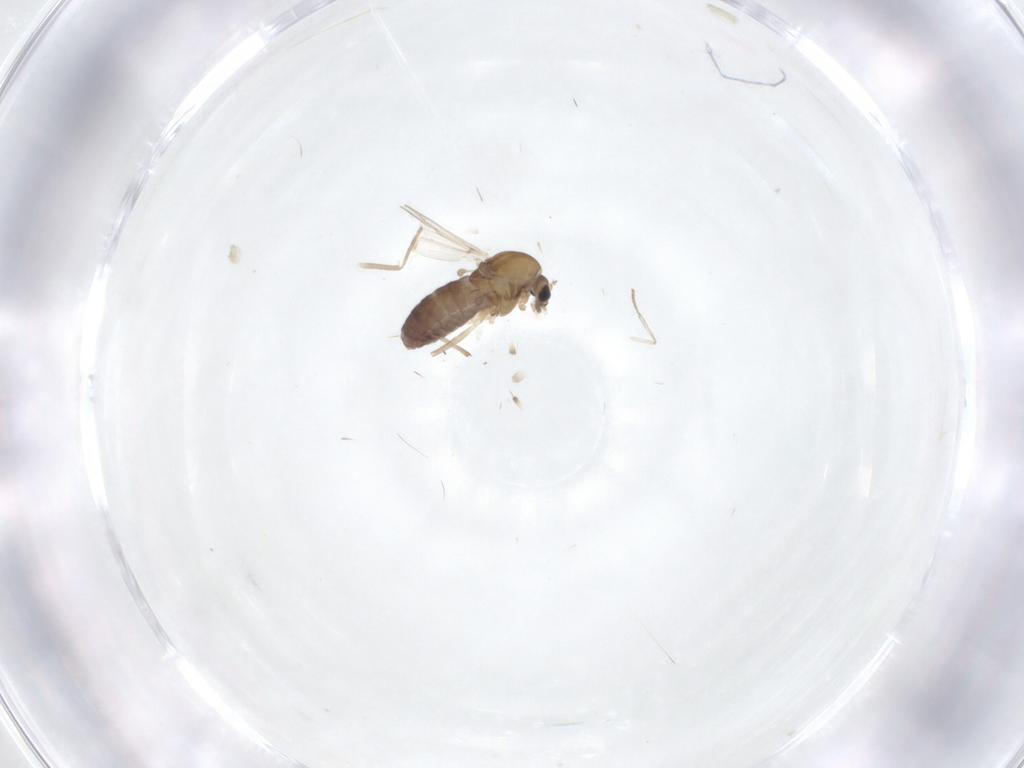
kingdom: Animalia
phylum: Arthropoda
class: Insecta
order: Diptera
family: Chironomidae
